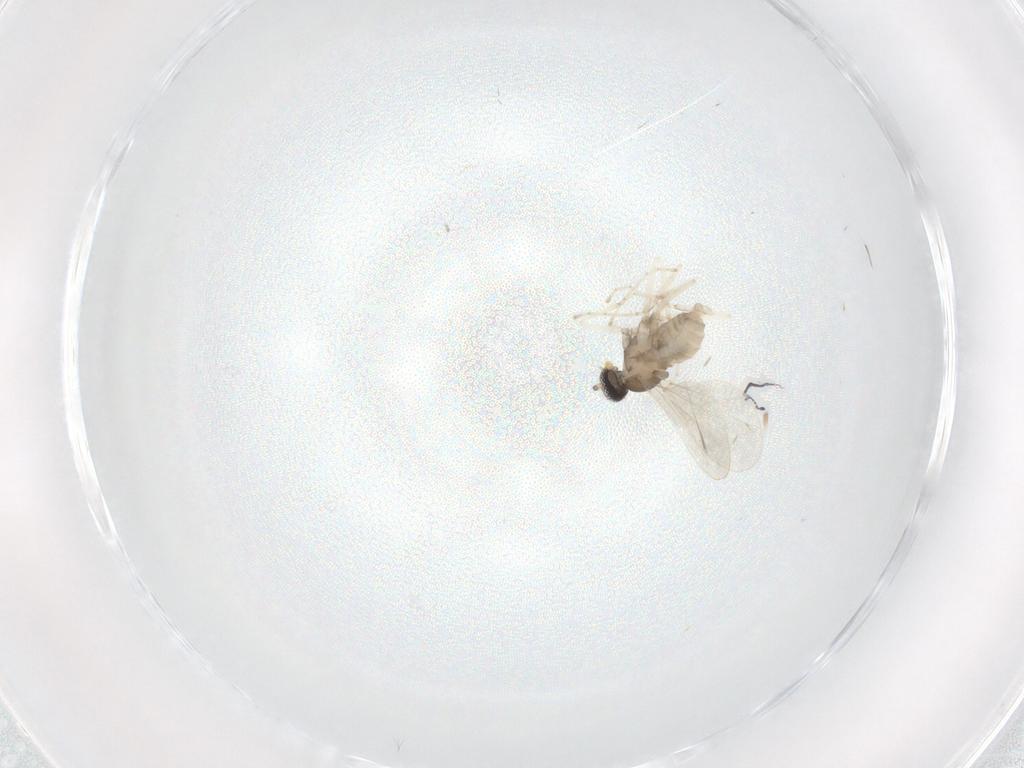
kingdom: Animalia
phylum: Arthropoda
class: Insecta
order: Diptera
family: Cecidomyiidae
